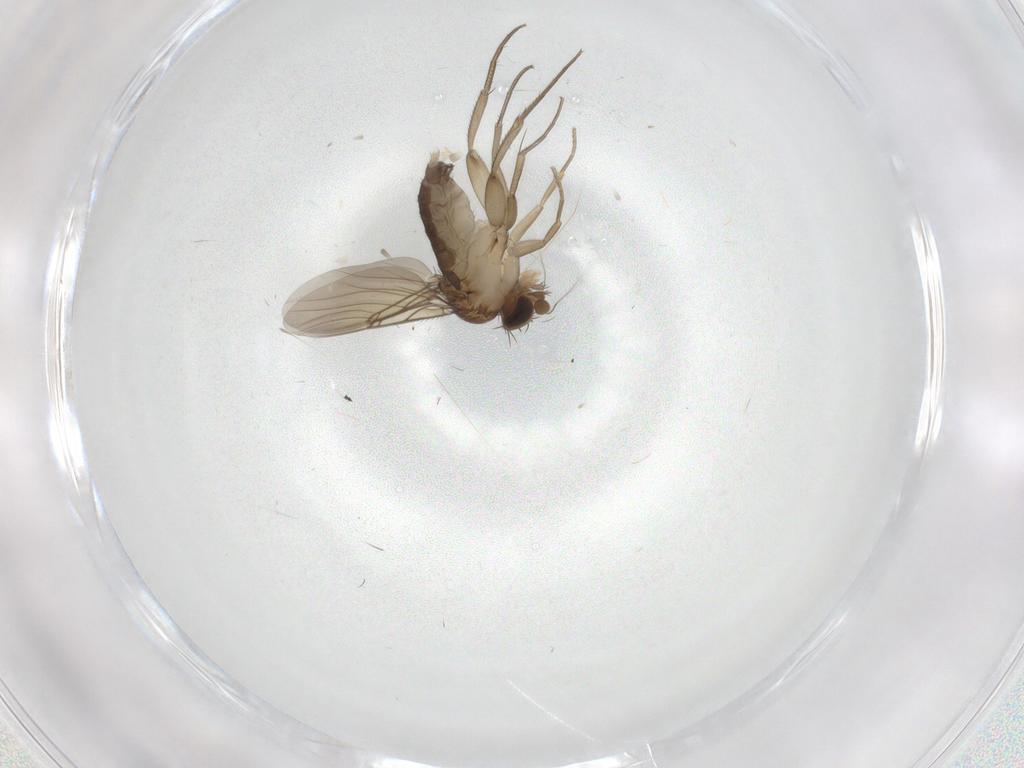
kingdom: Animalia
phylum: Arthropoda
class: Insecta
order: Diptera
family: Phoridae
